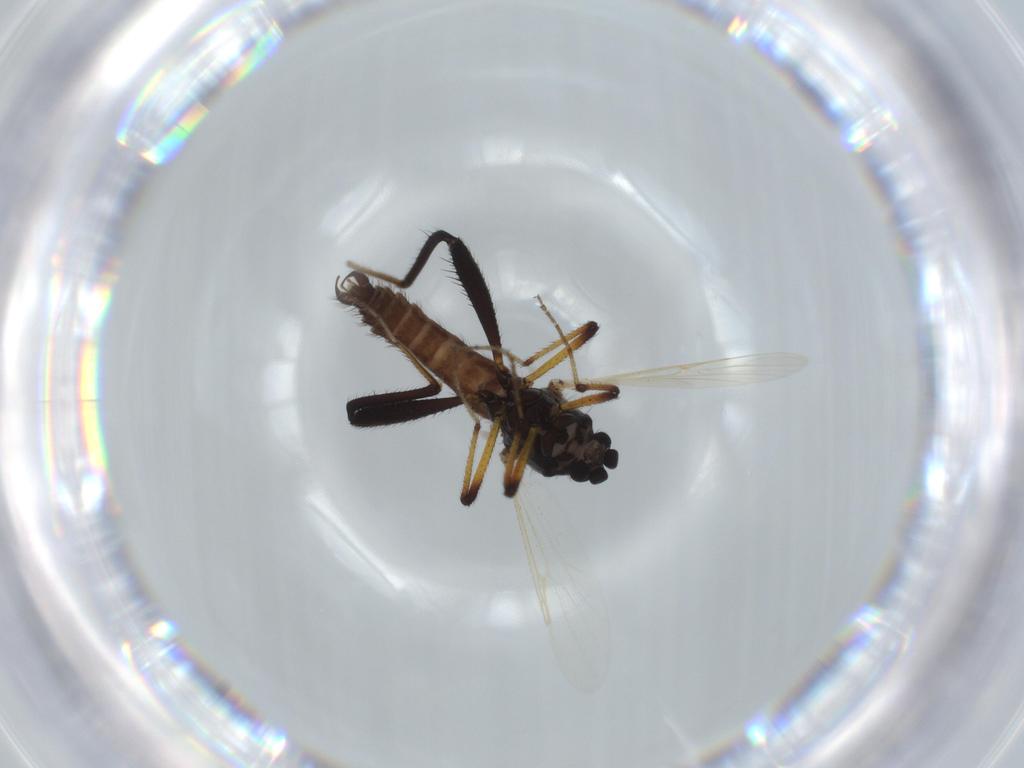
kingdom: Animalia
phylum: Arthropoda
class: Insecta
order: Diptera
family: Ceratopogonidae
